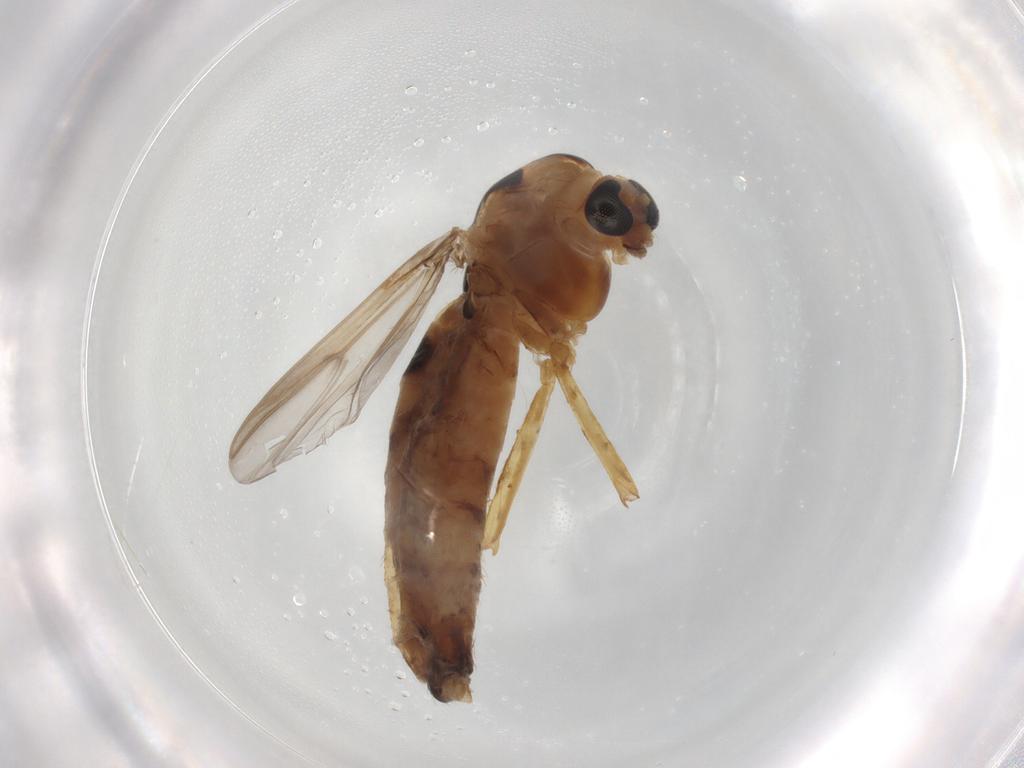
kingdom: Animalia
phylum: Arthropoda
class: Insecta
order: Diptera
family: Chironomidae
